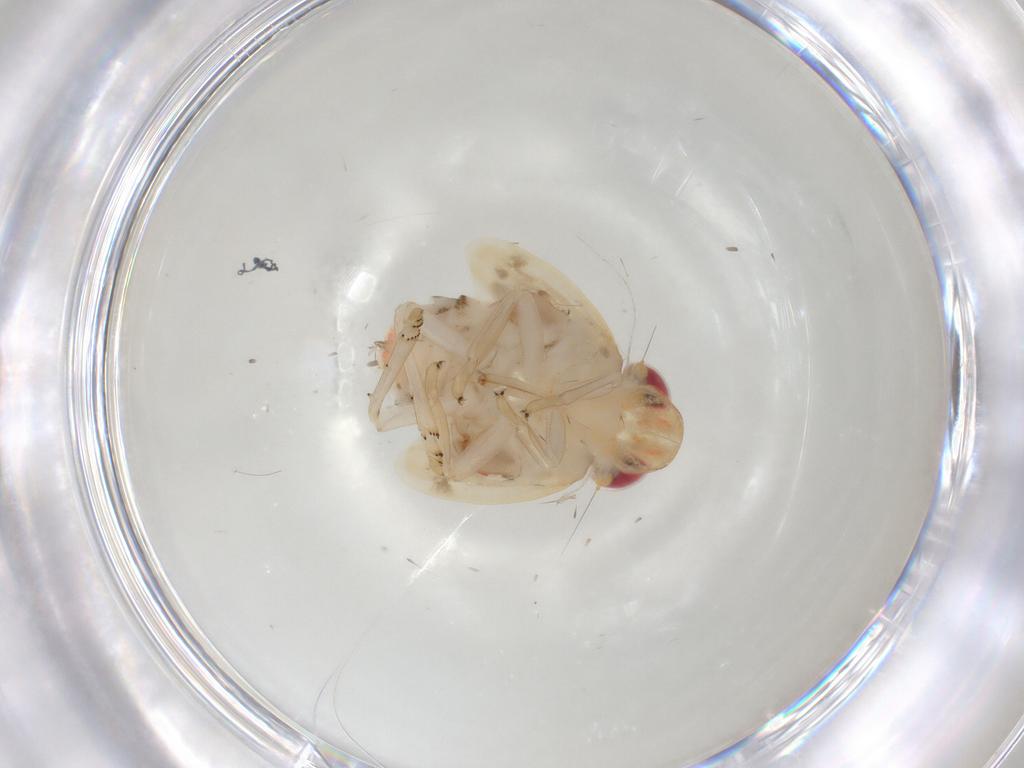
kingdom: Animalia
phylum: Arthropoda
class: Insecta
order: Hemiptera
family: Nogodinidae
